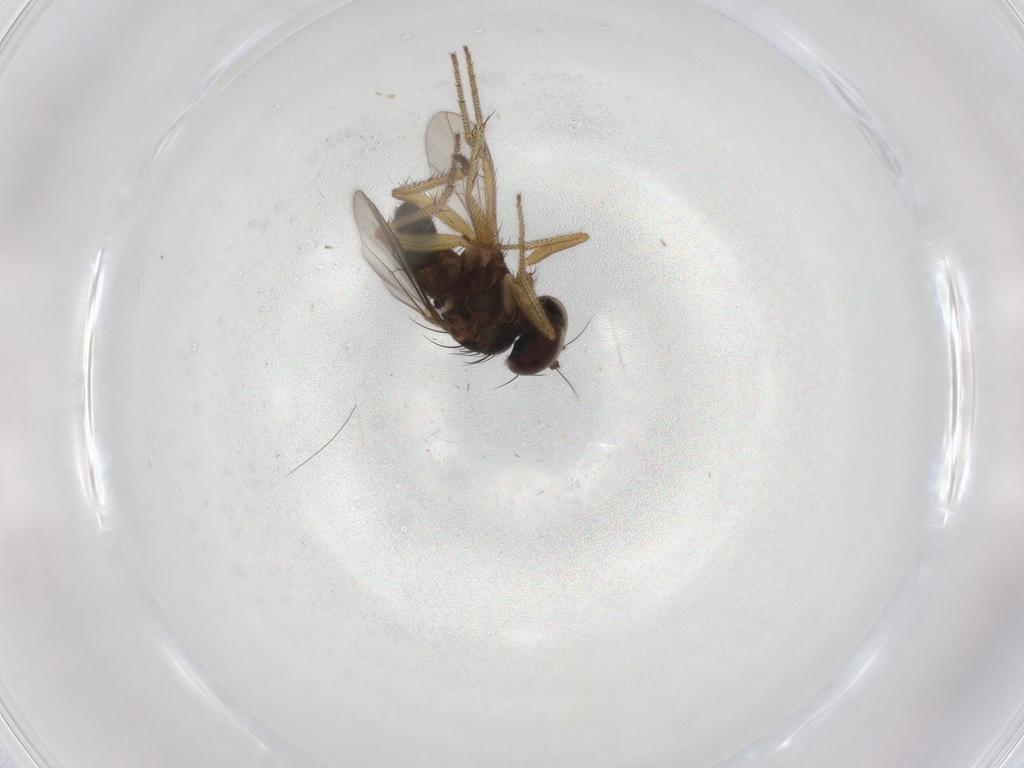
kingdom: Animalia
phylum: Arthropoda
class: Insecta
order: Diptera
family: Dolichopodidae
